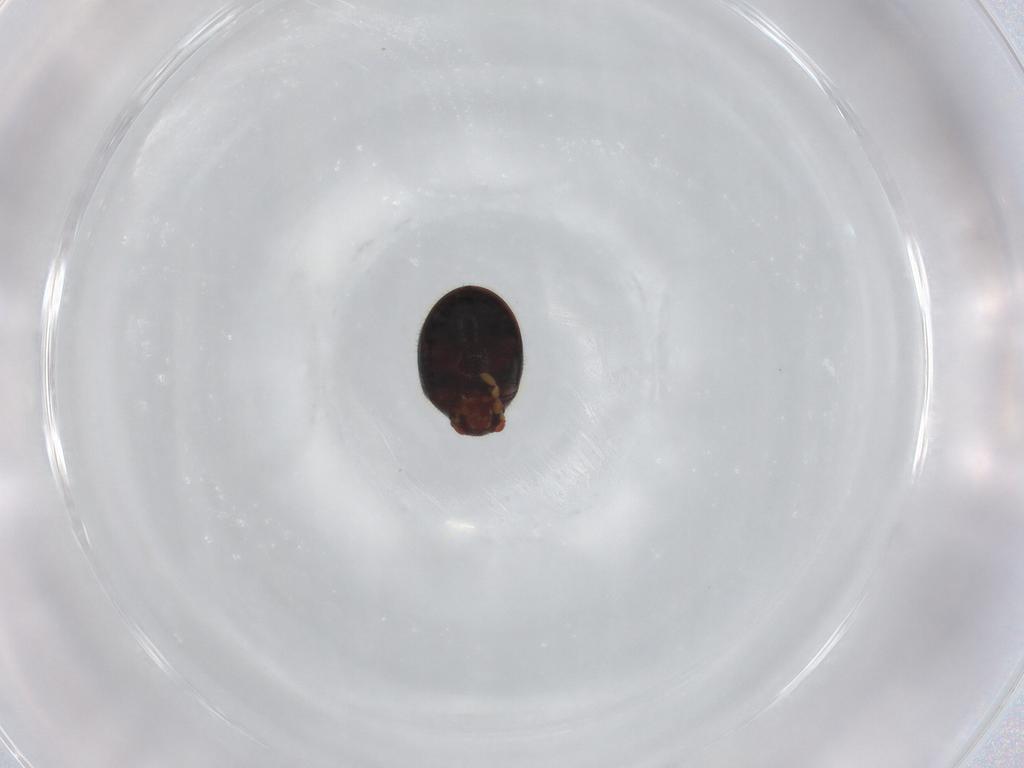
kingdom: Animalia
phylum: Arthropoda
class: Insecta
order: Coleoptera
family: Ptinidae
